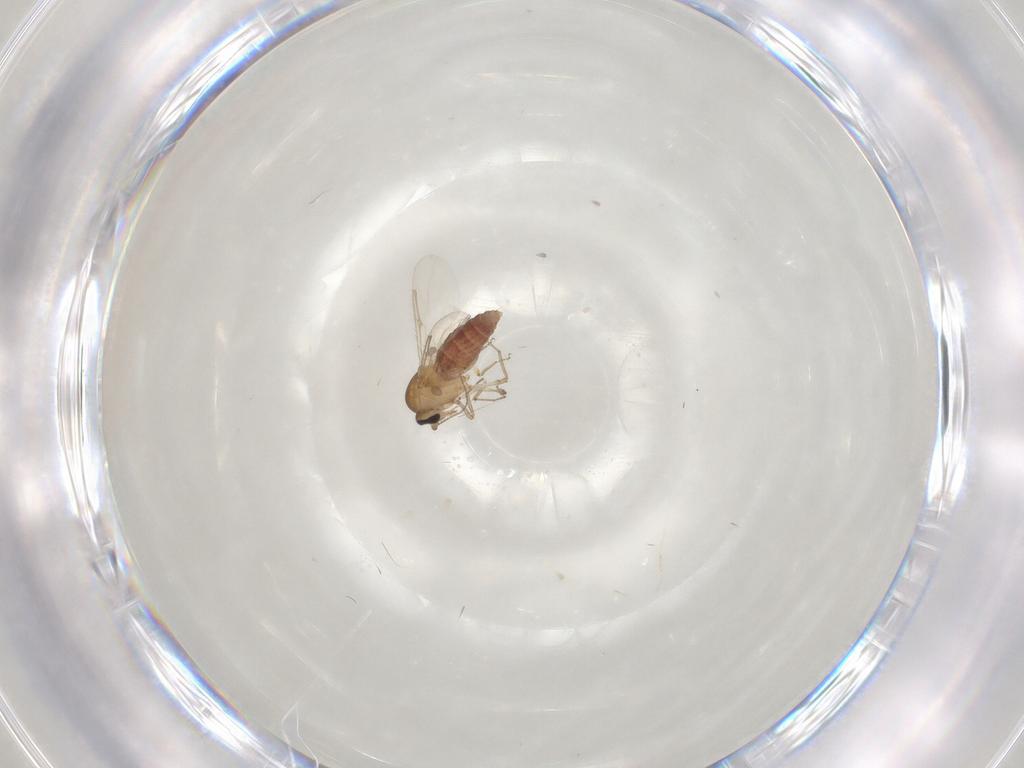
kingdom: Animalia
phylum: Arthropoda
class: Insecta
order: Diptera
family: Ceratopogonidae
